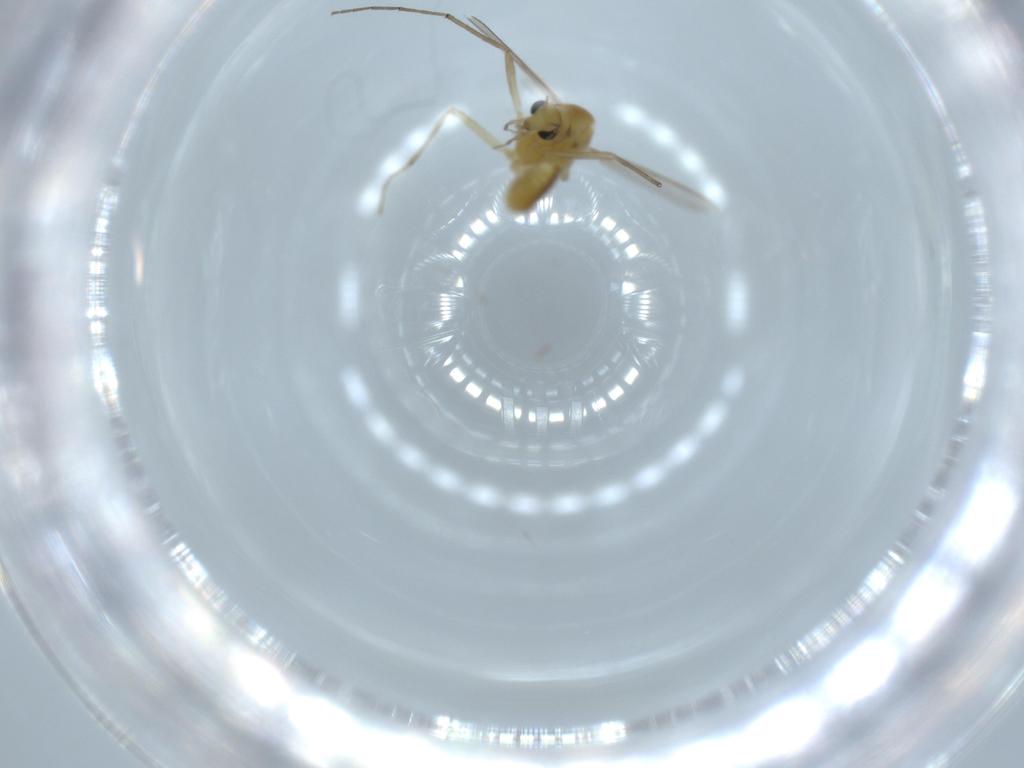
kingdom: Animalia
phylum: Arthropoda
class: Insecta
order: Diptera
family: Chironomidae
